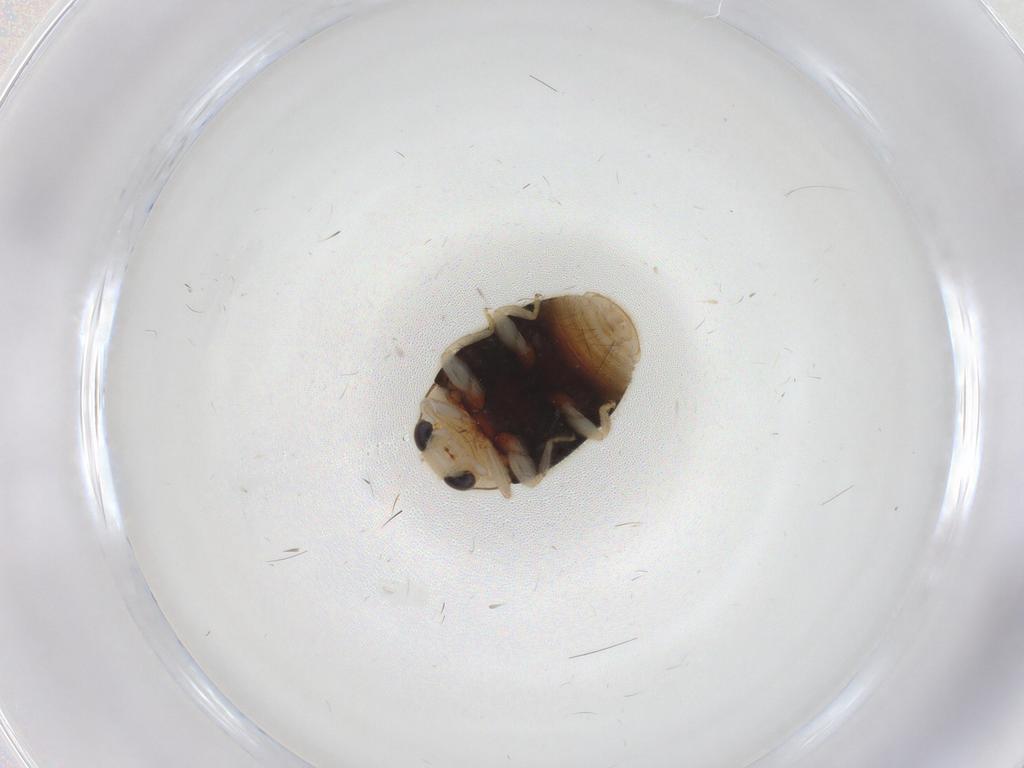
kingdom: Animalia
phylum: Arthropoda
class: Insecta
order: Coleoptera
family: Coccinellidae
